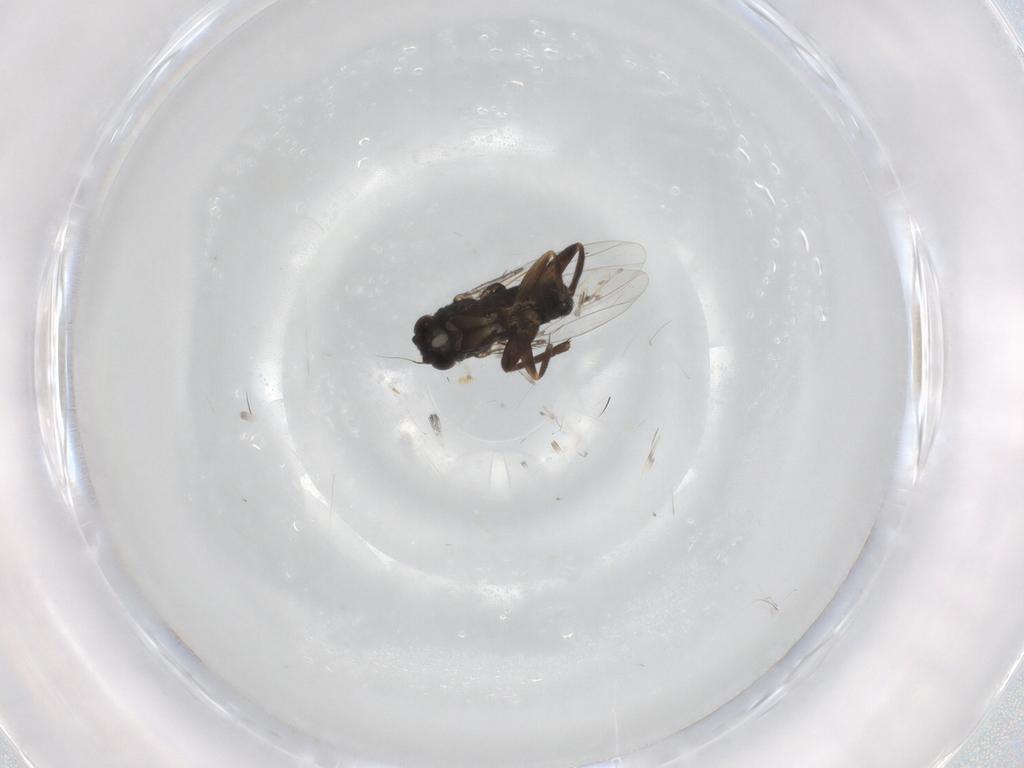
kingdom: Animalia
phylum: Arthropoda
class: Insecta
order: Diptera
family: Phoridae
